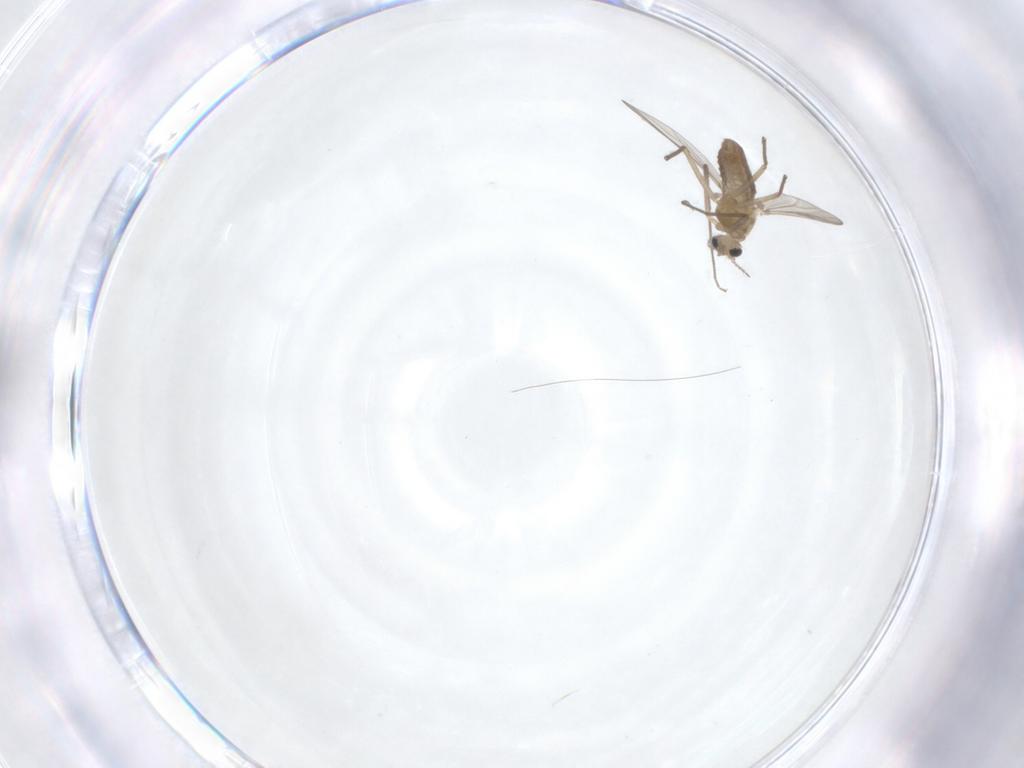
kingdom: Animalia
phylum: Arthropoda
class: Insecta
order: Diptera
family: Chironomidae
